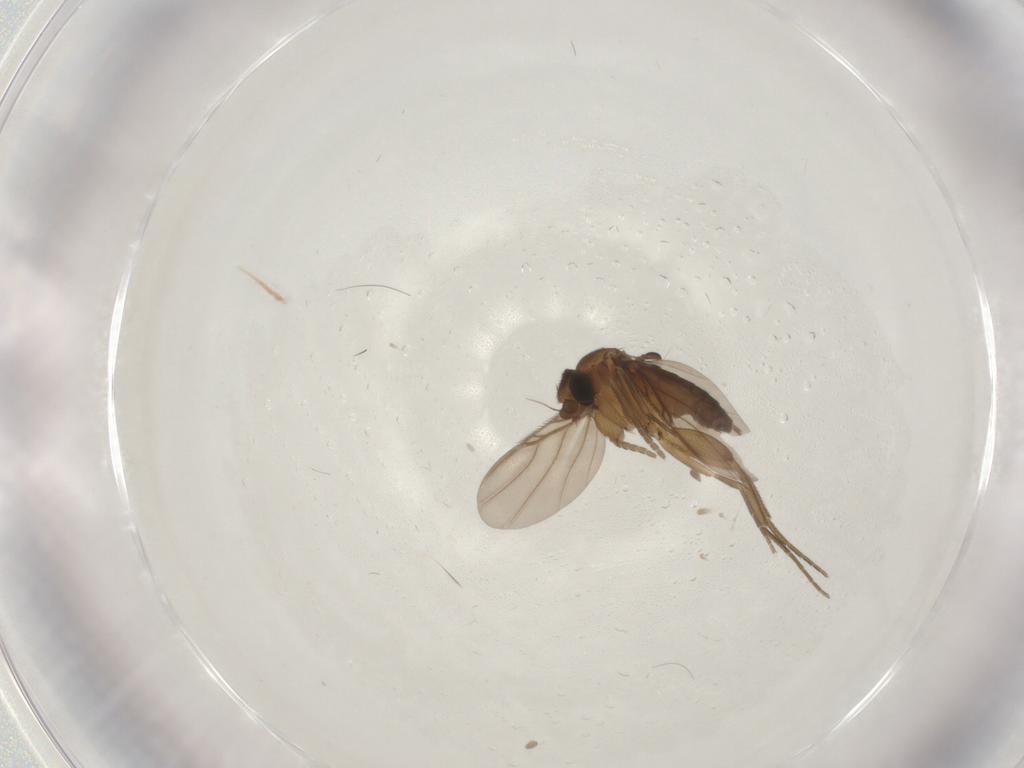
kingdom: Animalia
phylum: Arthropoda
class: Insecta
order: Diptera
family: Phoridae
